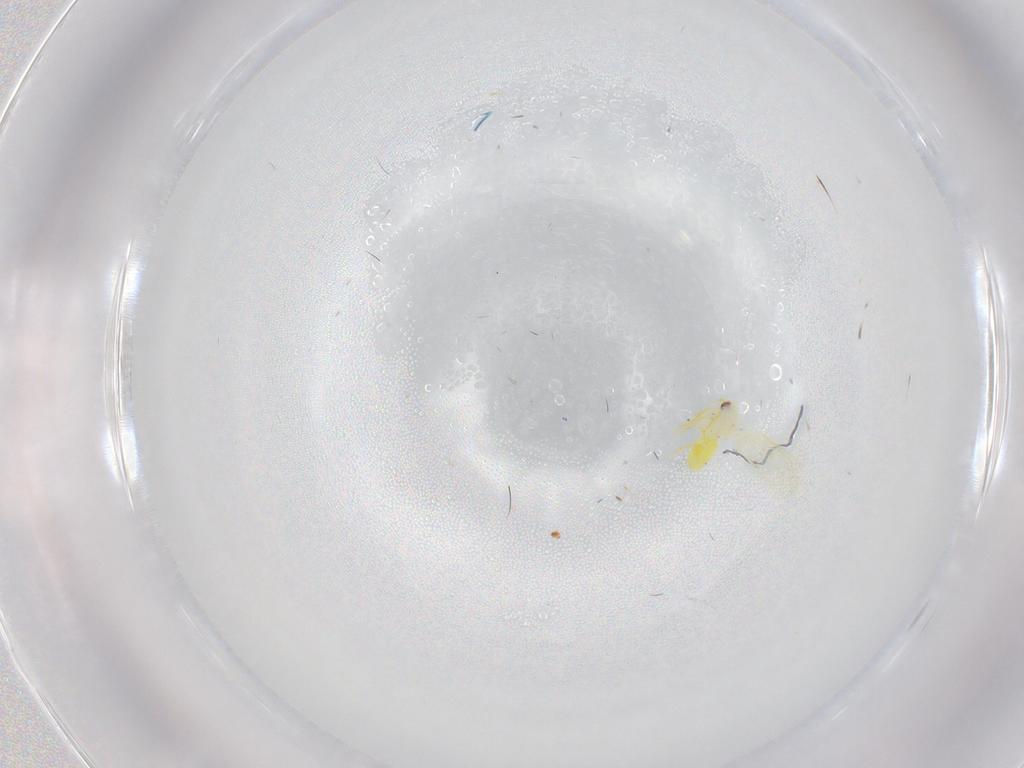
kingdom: Animalia
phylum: Arthropoda
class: Insecta
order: Hemiptera
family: Aleyrodidae
